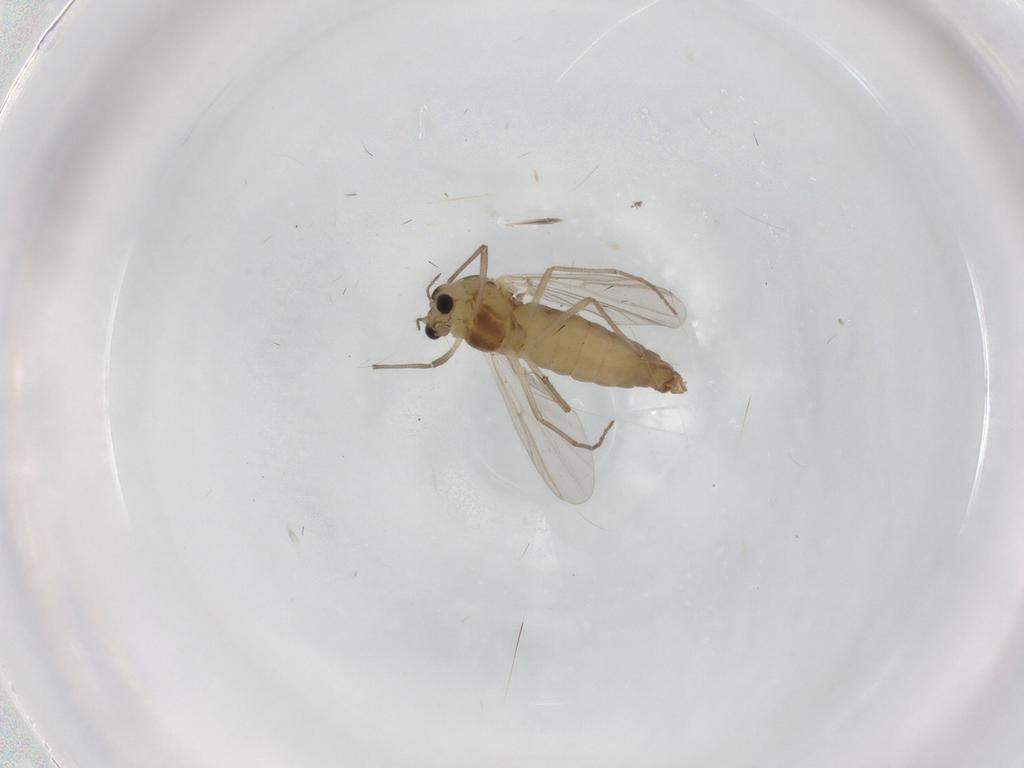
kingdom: Animalia
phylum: Arthropoda
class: Insecta
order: Diptera
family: Chironomidae
